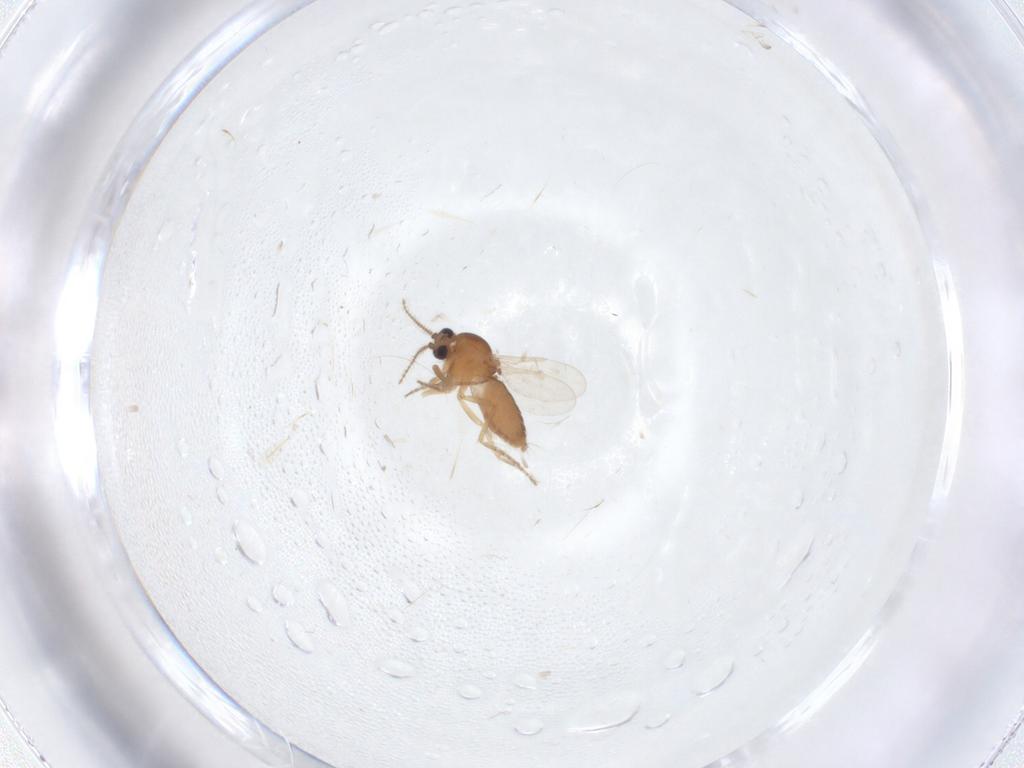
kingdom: Animalia
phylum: Arthropoda
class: Insecta
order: Diptera
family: Ceratopogonidae
